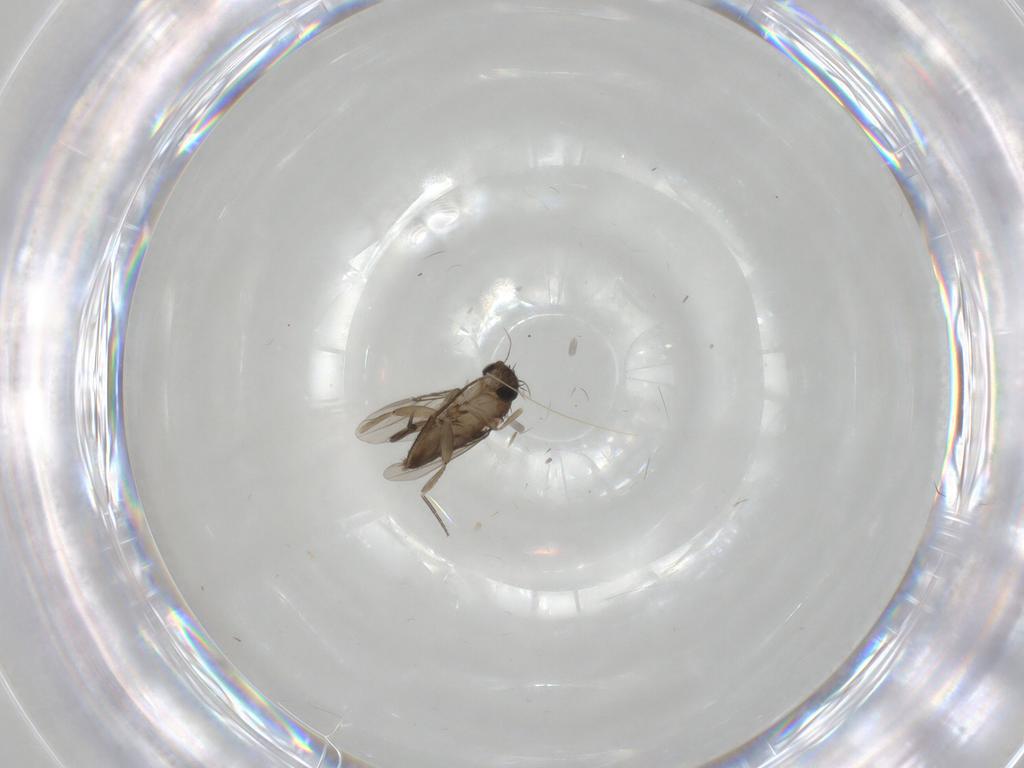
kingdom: Animalia
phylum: Arthropoda
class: Insecta
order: Diptera
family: Phoridae
